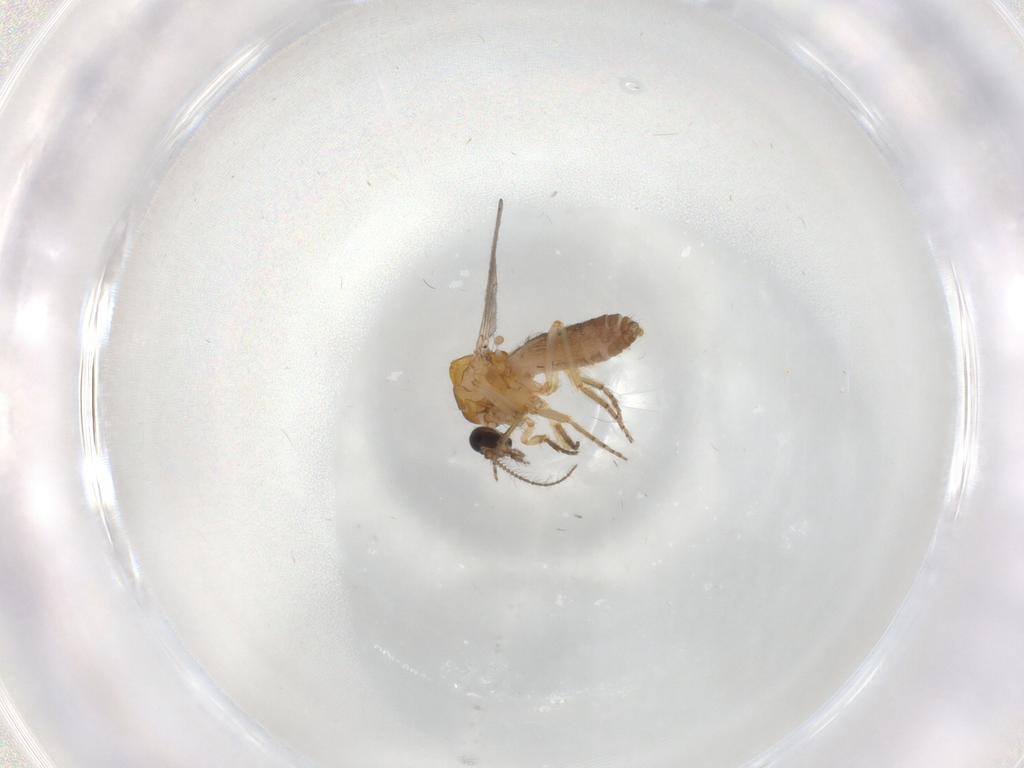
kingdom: Animalia
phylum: Arthropoda
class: Insecta
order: Diptera
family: Ceratopogonidae
